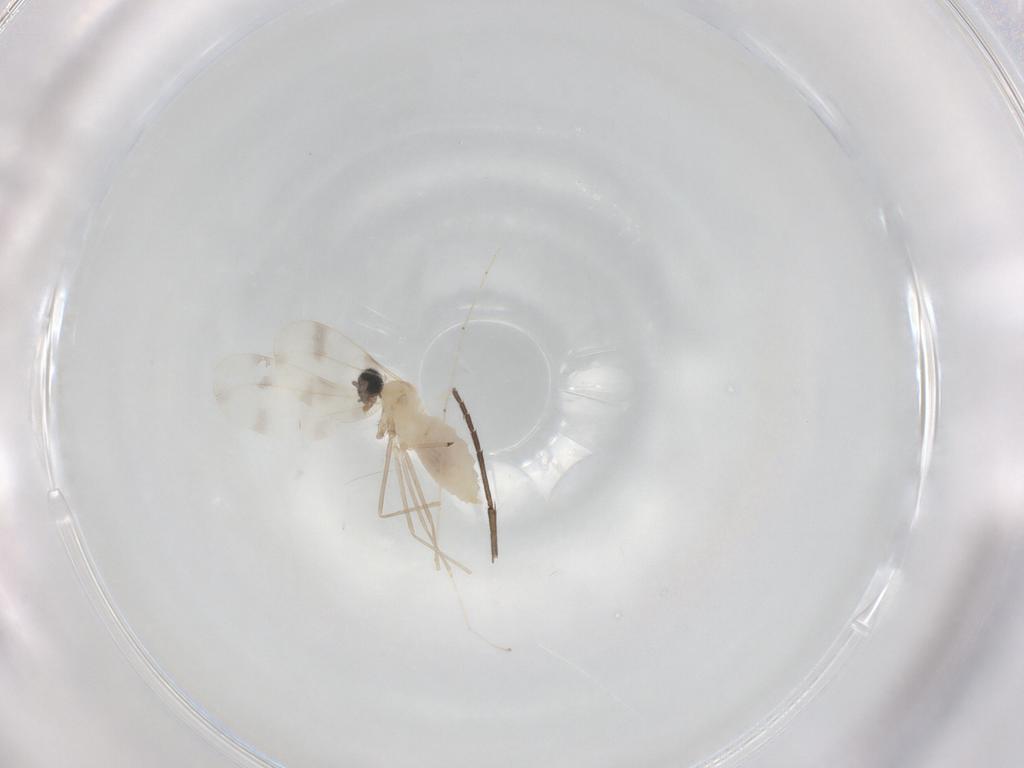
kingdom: Animalia
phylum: Arthropoda
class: Insecta
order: Diptera
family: Cecidomyiidae
